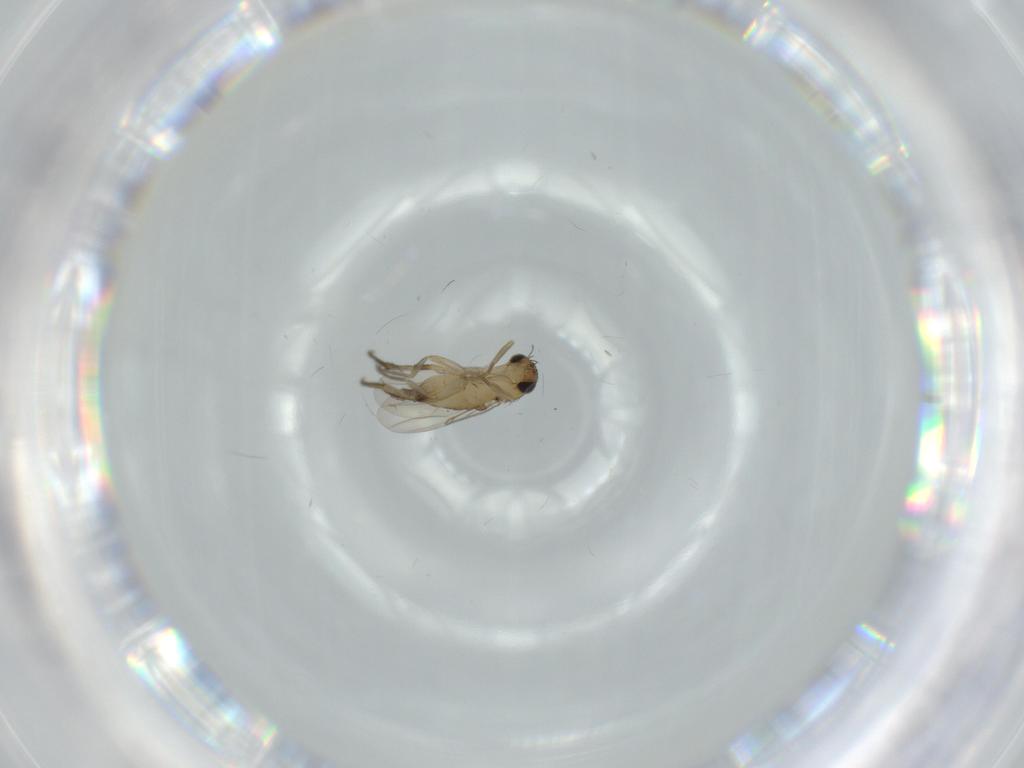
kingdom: Animalia
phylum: Arthropoda
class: Insecta
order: Diptera
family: Phoridae
